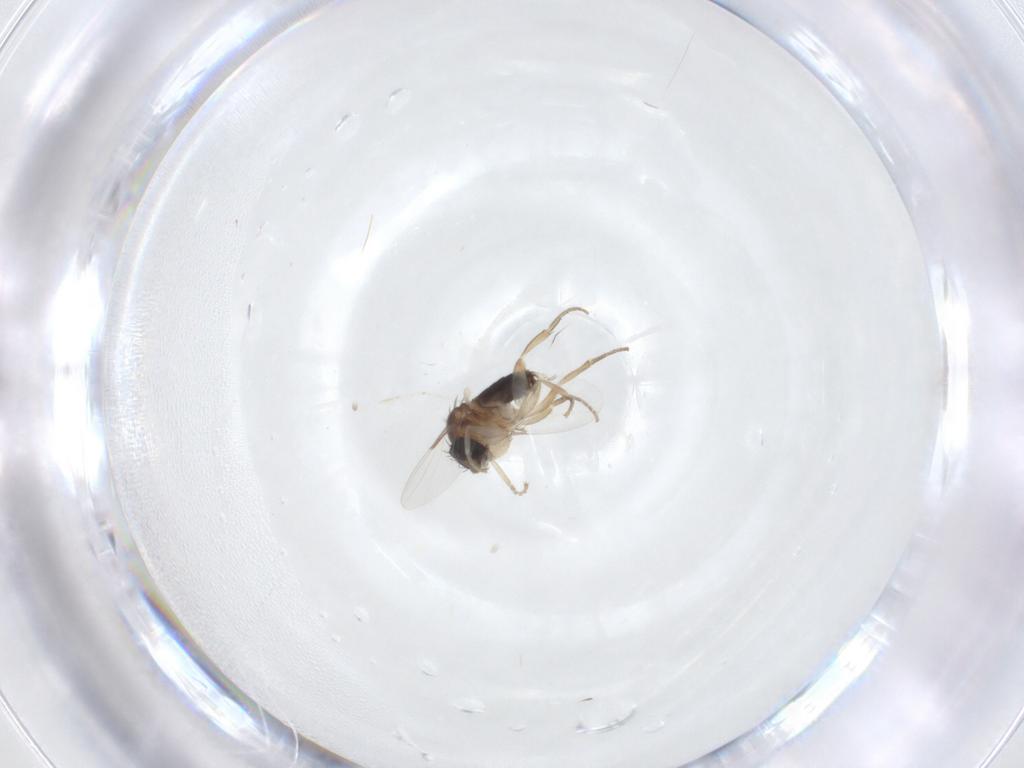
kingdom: Animalia
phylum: Arthropoda
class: Insecta
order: Diptera
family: Phoridae
